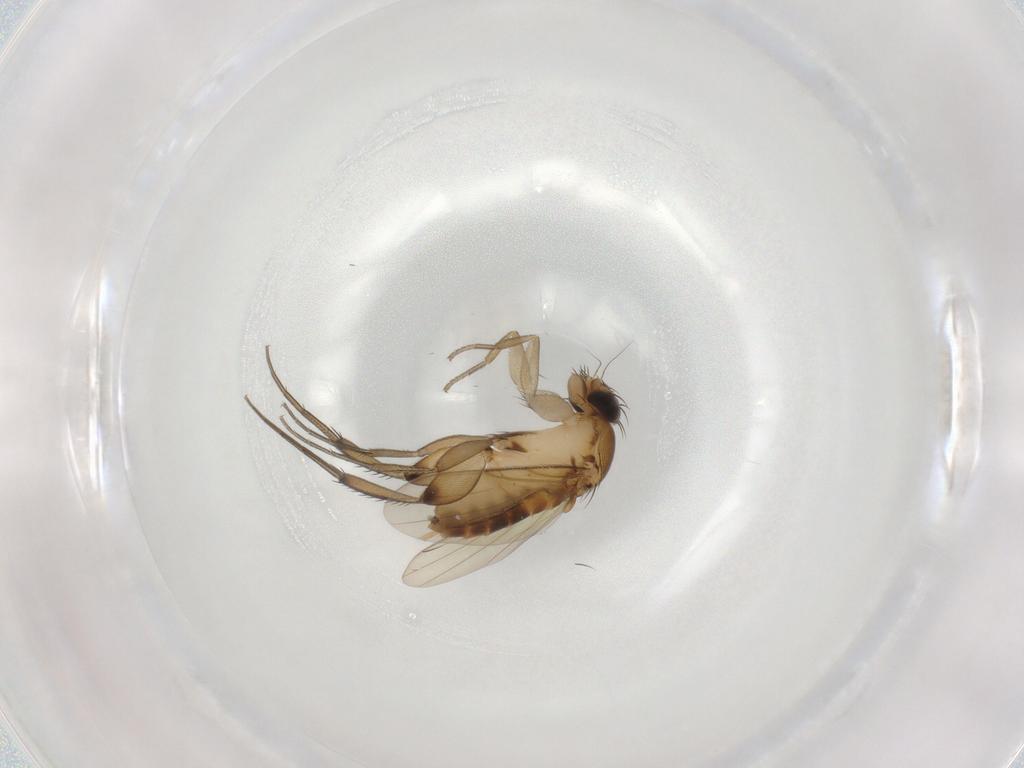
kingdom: Animalia
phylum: Arthropoda
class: Insecta
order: Diptera
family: Phoridae
